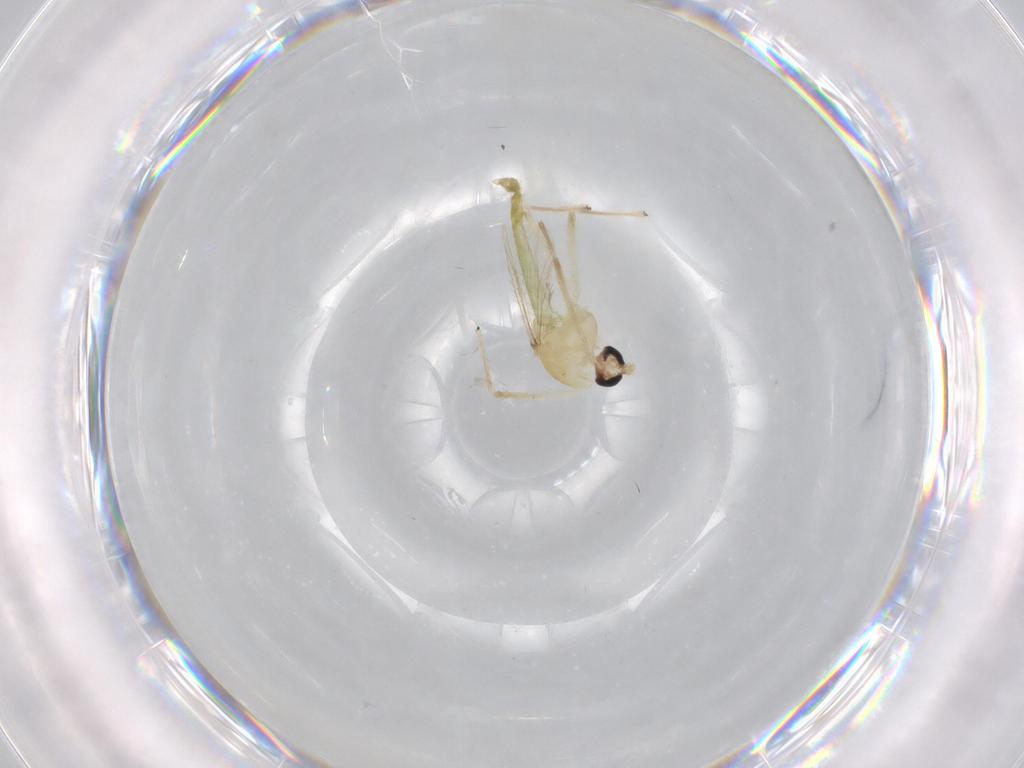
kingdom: Animalia
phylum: Arthropoda
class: Insecta
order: Diptera
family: Chironomidae
